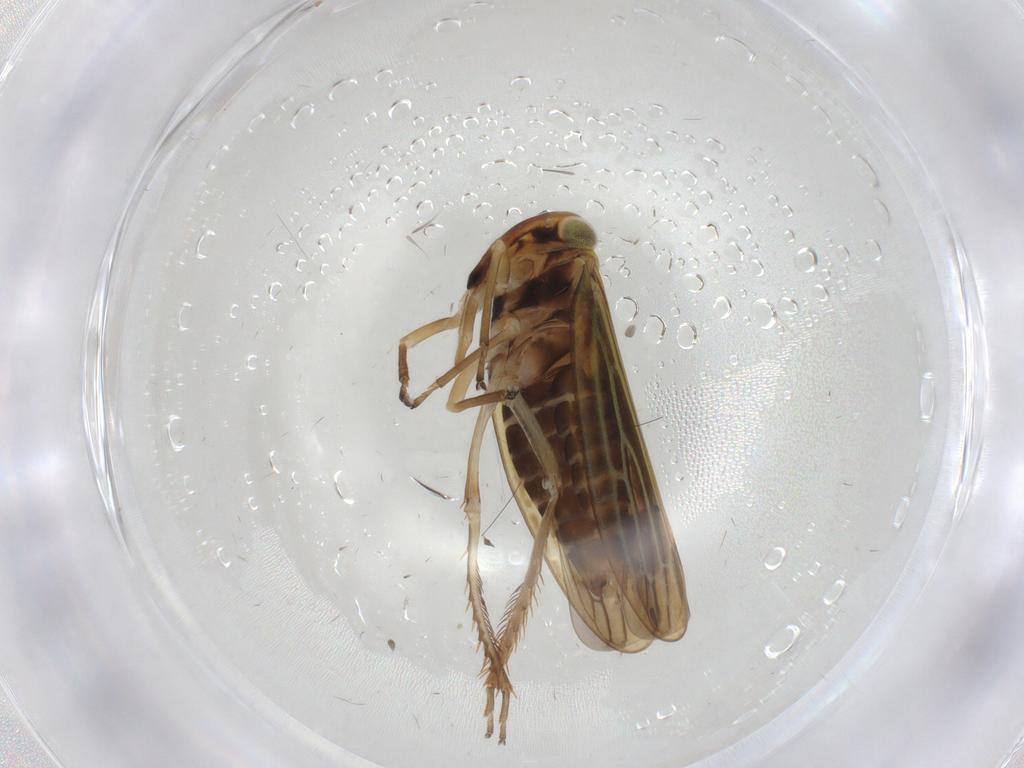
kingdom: Animalia
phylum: Arthropoda
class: Insecta
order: Hemiptera
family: Cicadellidae
